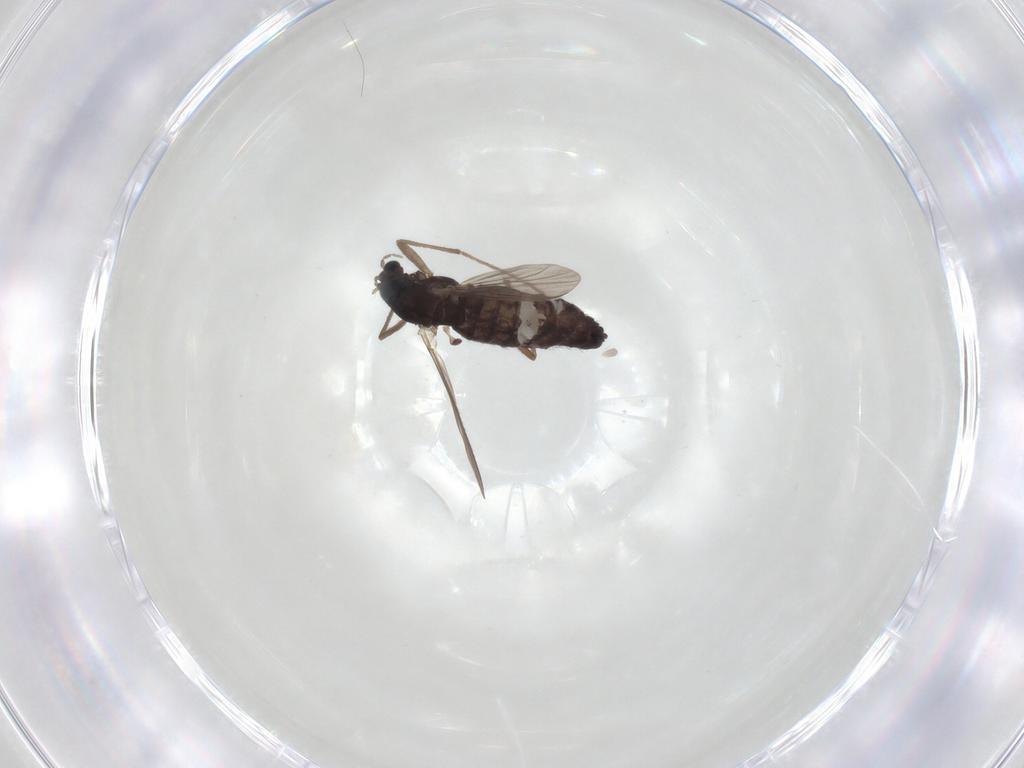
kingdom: Animalia
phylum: Arthropoda
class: Insecta
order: Diptera
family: Chironomidae
